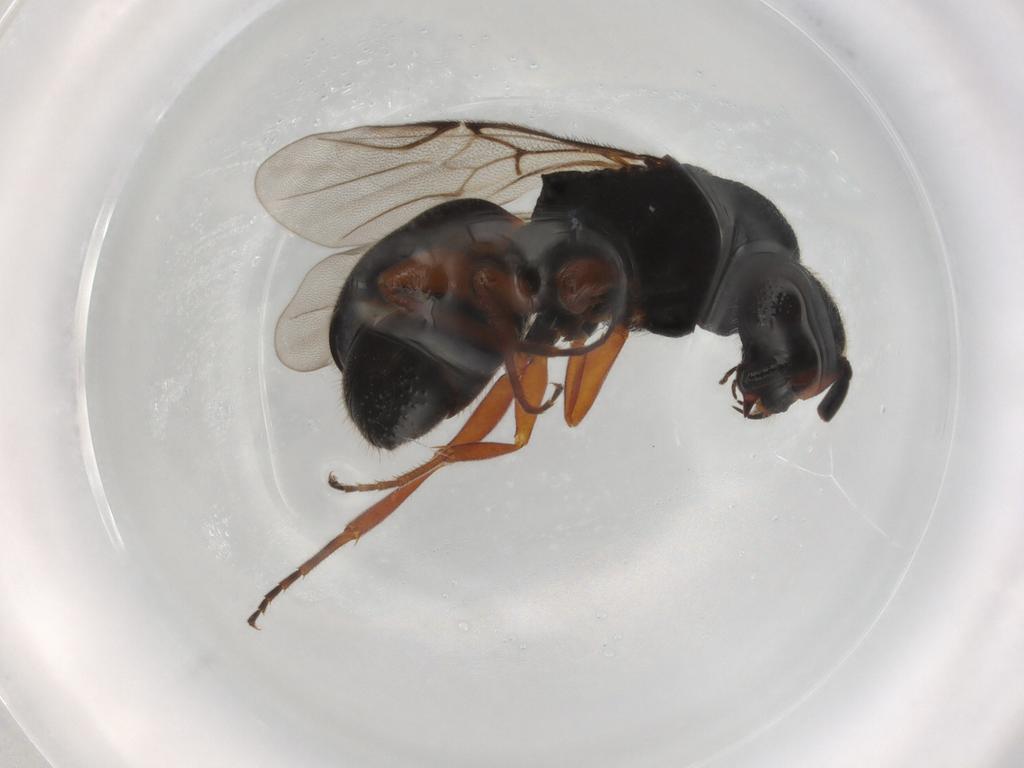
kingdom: Animalia
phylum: Arthropoda
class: Insecta
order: Hymenoptera
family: Chrysididae
